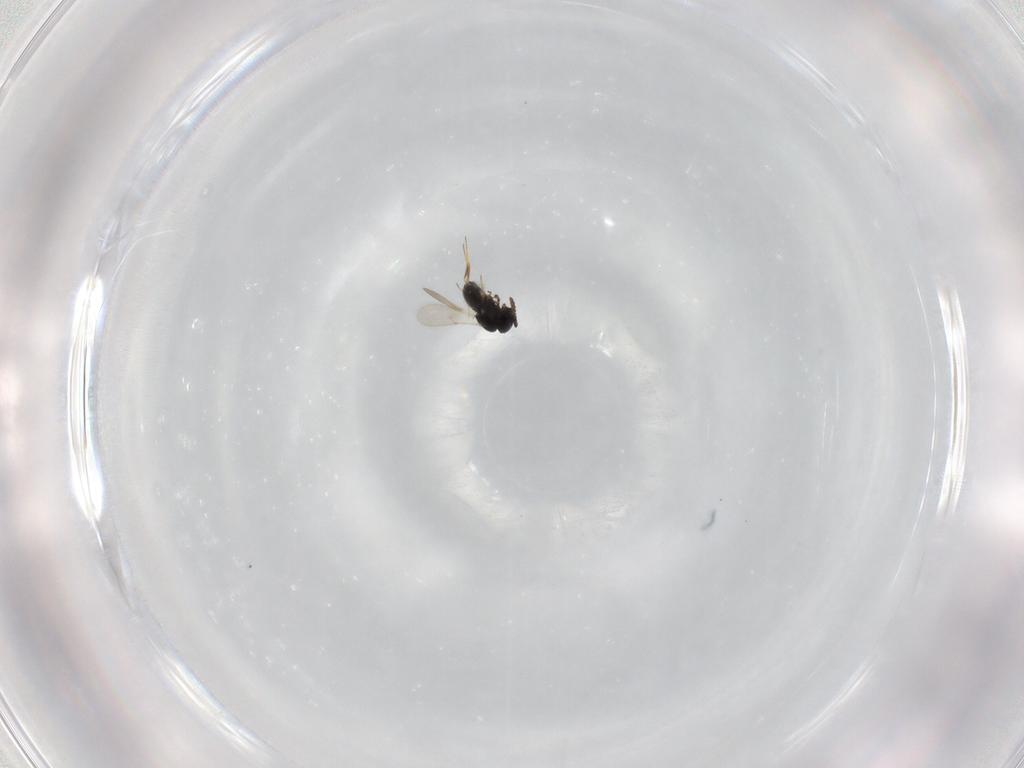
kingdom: Animalia
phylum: Arthropoda
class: Insecta
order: Hymenoptera
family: Scelionidae
